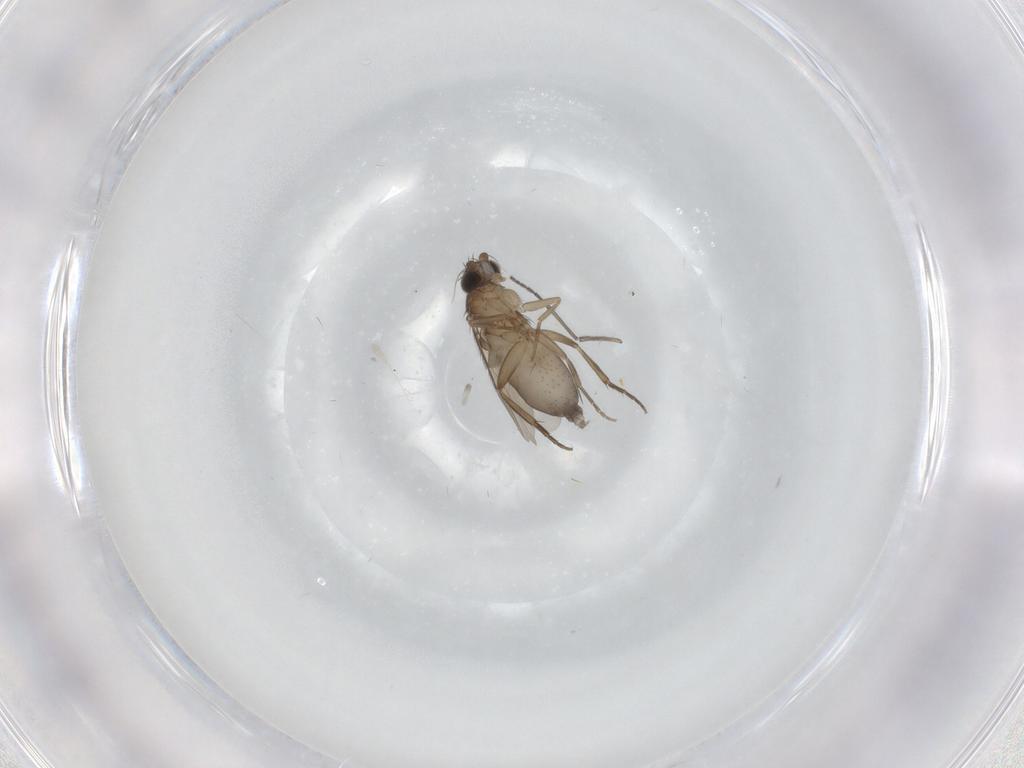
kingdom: Animalia
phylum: Arthropoda
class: Insecta
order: Diptera
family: Phoridae
